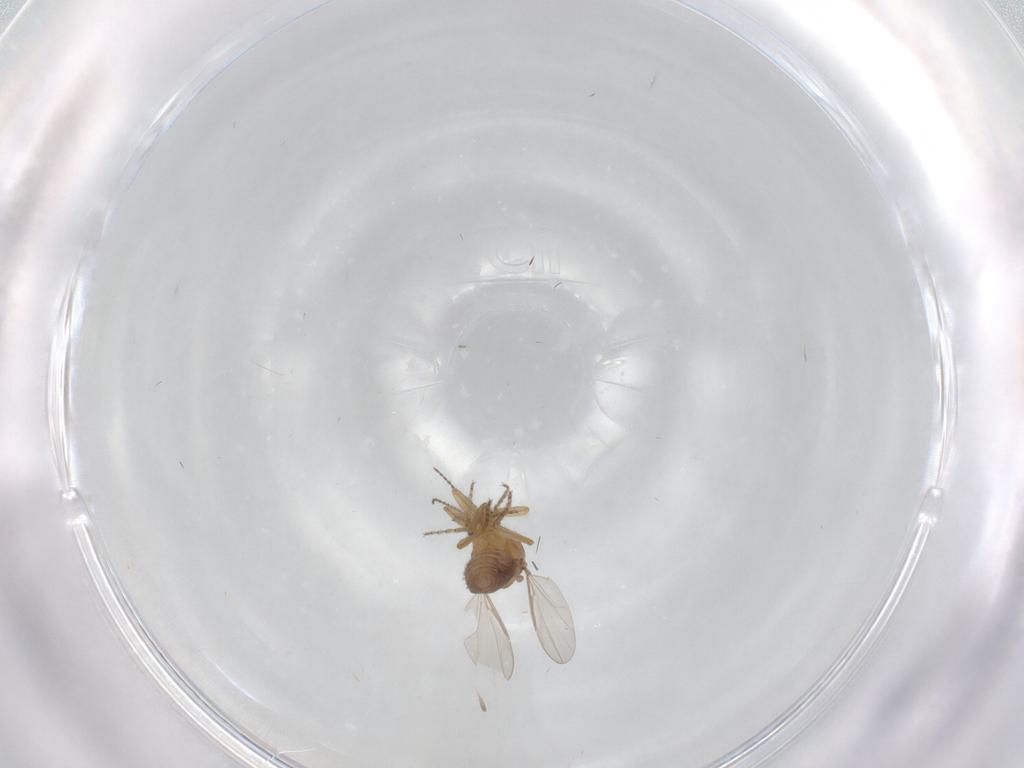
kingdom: Animalia
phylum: Arthropoda
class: Insecta
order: Diptera
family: Ceratopogonidae
